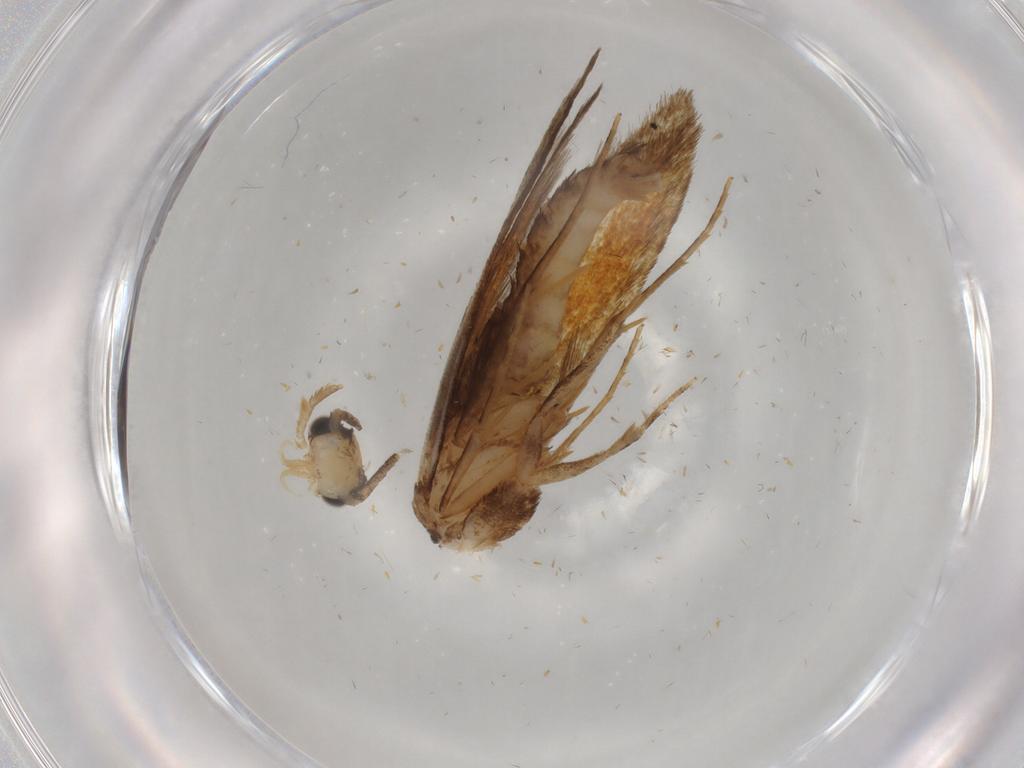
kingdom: Animalia
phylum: Arthropoda
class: Insecta
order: Lepidoptera
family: Tineidae
